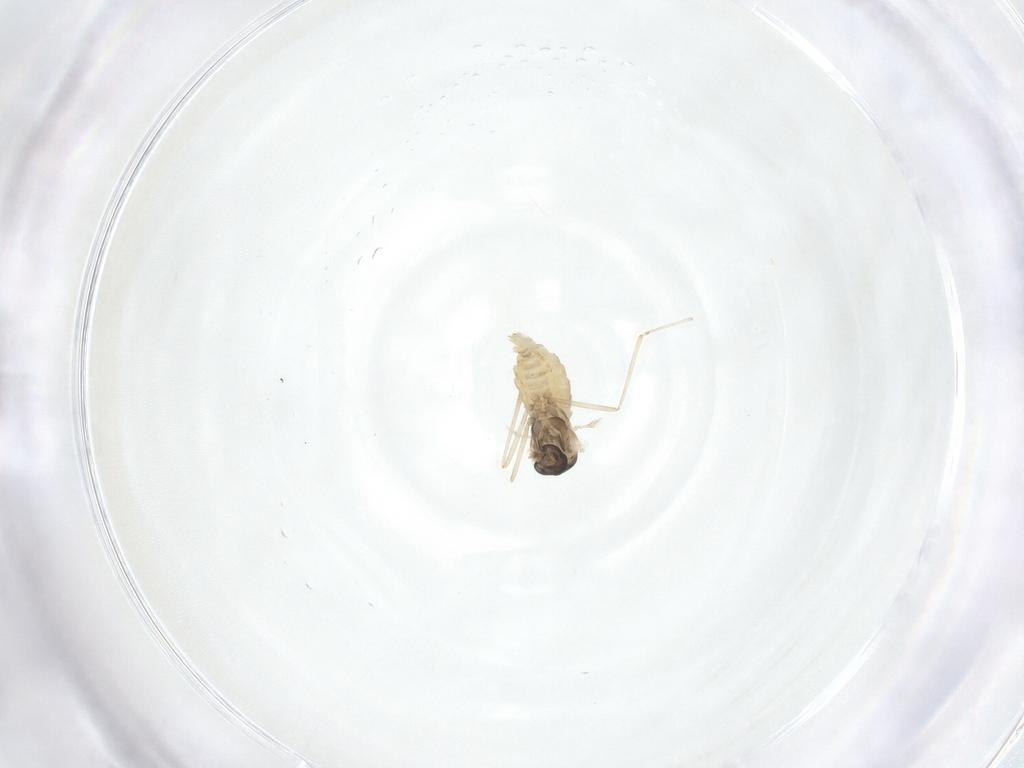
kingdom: Animalia
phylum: Arthropoda
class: Insecta
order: Diptera
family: Cecidomyiidae
